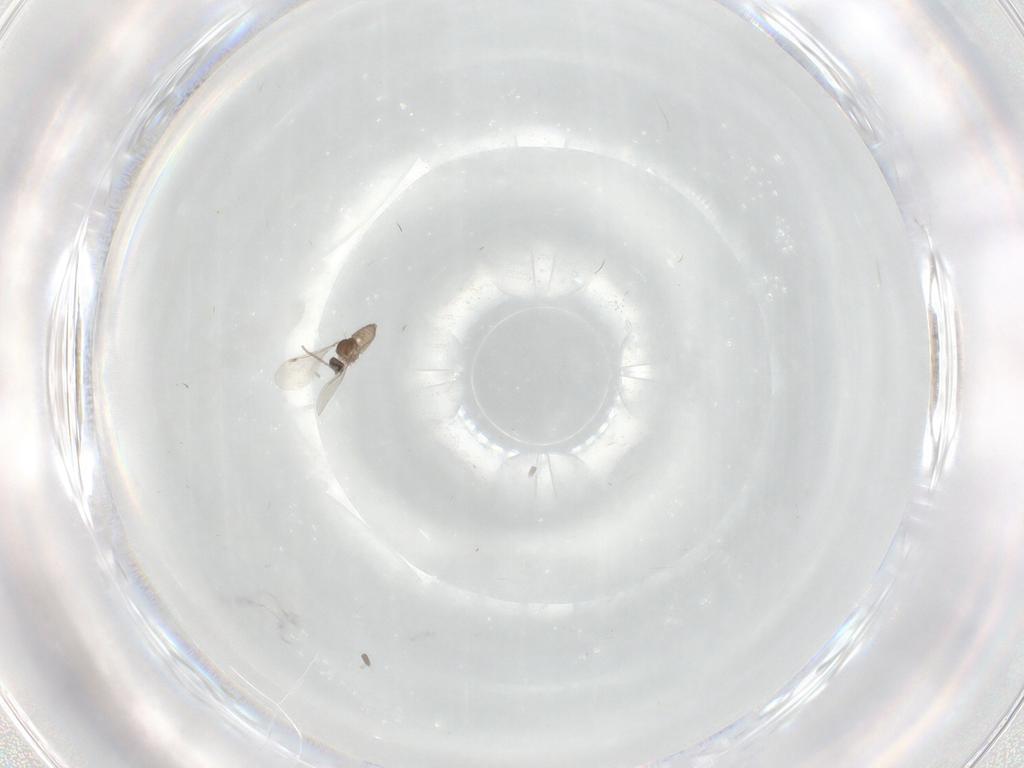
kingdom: Animalia
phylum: Arthropoda
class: Insecta
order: Diptera
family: Cecidomyiidae
